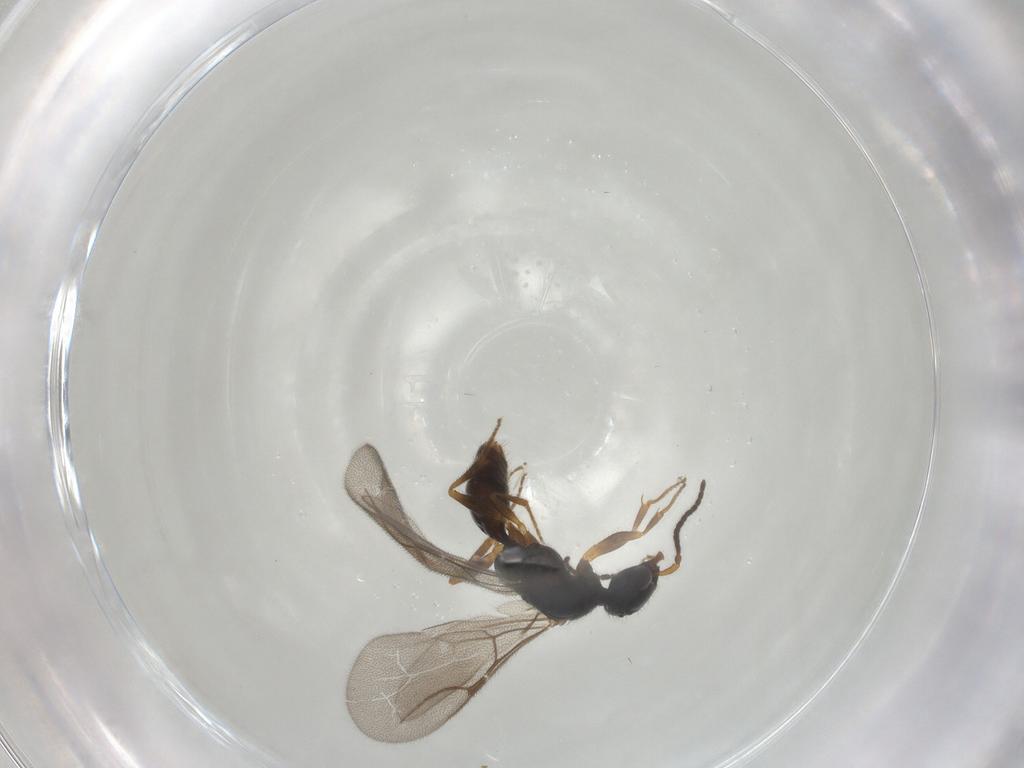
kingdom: Animalia
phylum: Arthropoda
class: Insecta
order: Hymenoptera
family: Bethylidae
